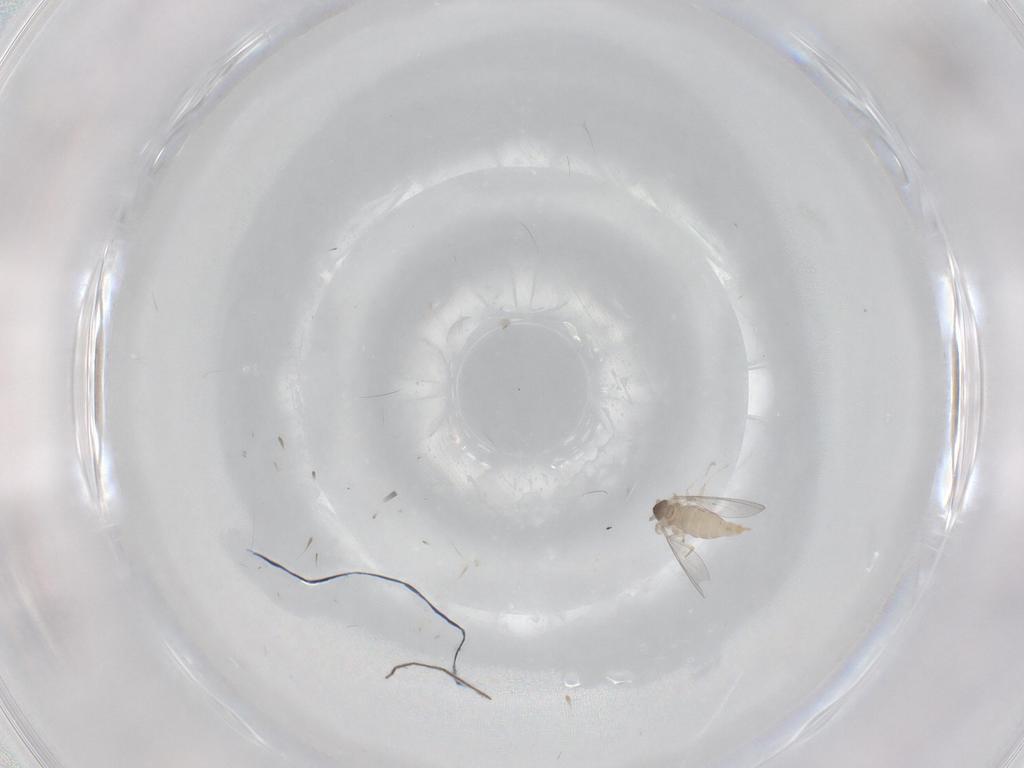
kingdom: Animalia
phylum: Arthropoda
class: Insecta
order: Diptera
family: Cecidomyiidae
